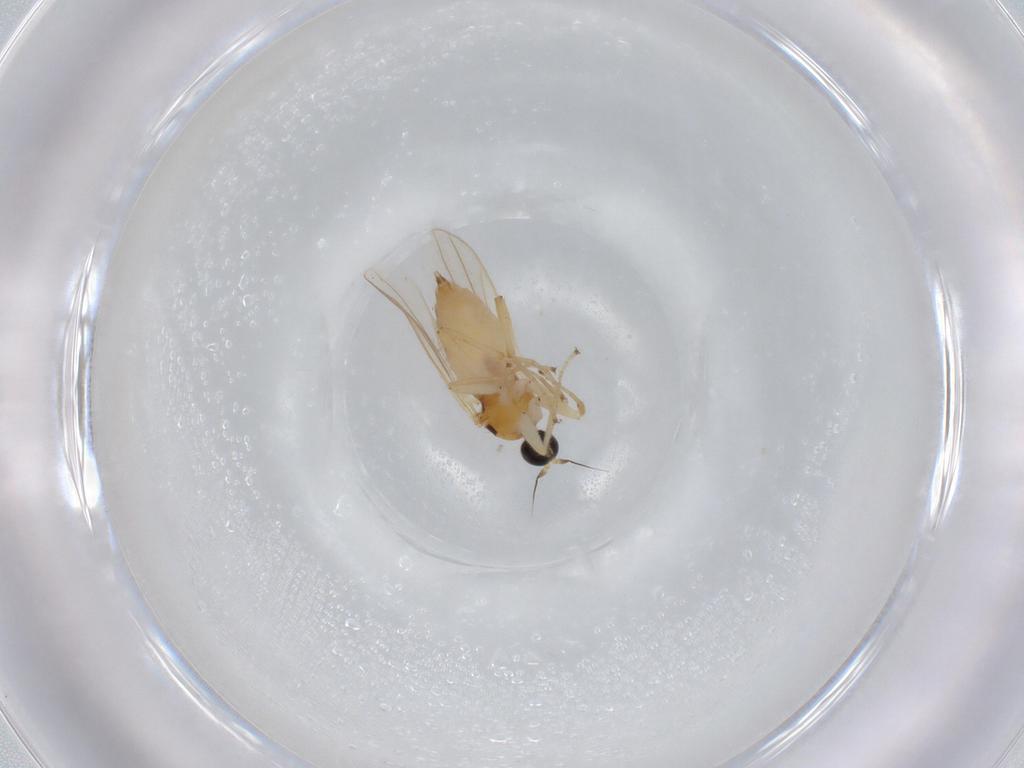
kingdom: Animalia
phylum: Arthropoda
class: Insecta
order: Diptera
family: Hybotidae
